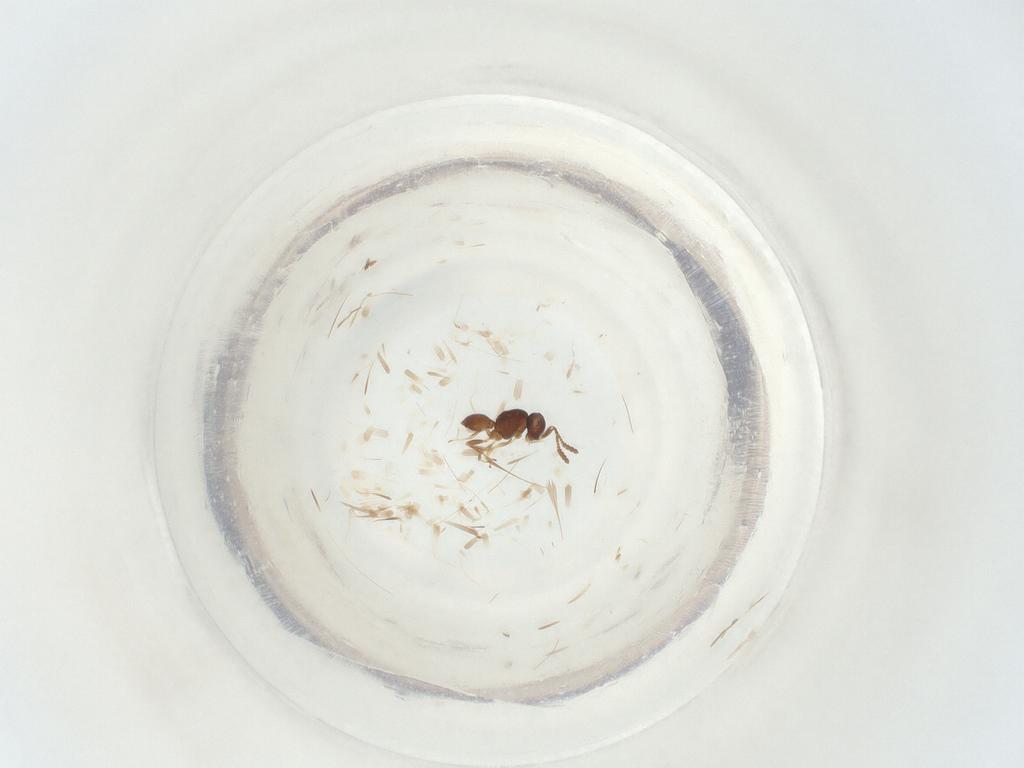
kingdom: Animalia
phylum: Arthropoda
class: Insecta
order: Hymenoptera
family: Scelionidae
